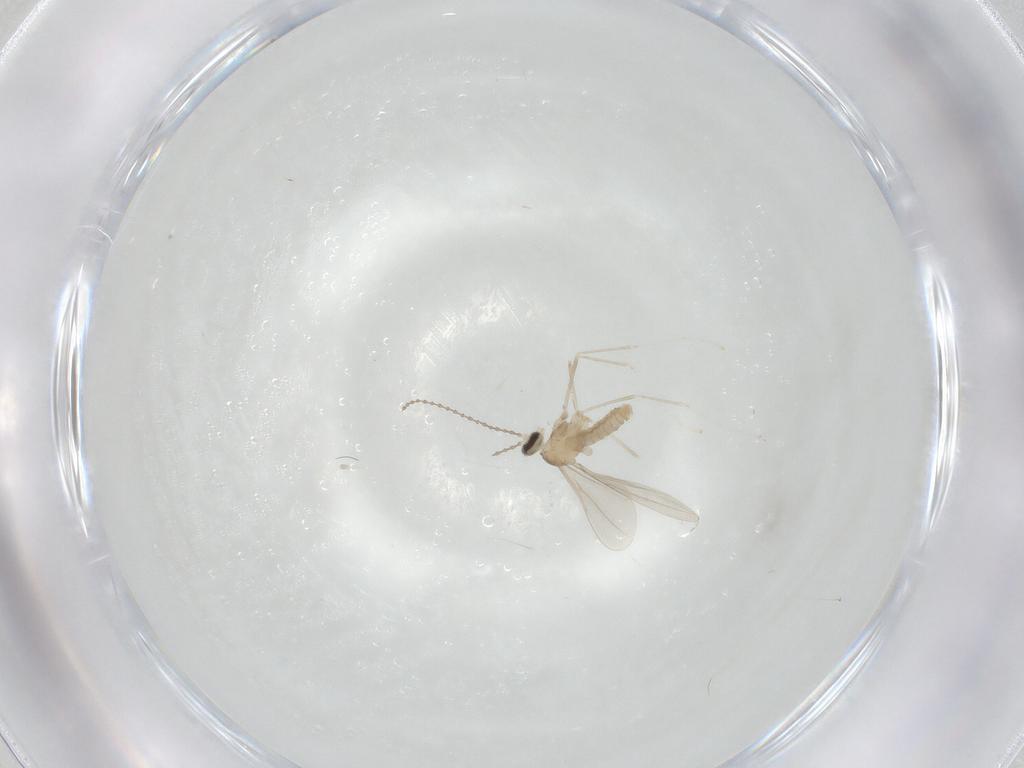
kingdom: Animalia
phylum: Arthropoda
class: Insecta
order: Diptera
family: Cecidomyiidae
